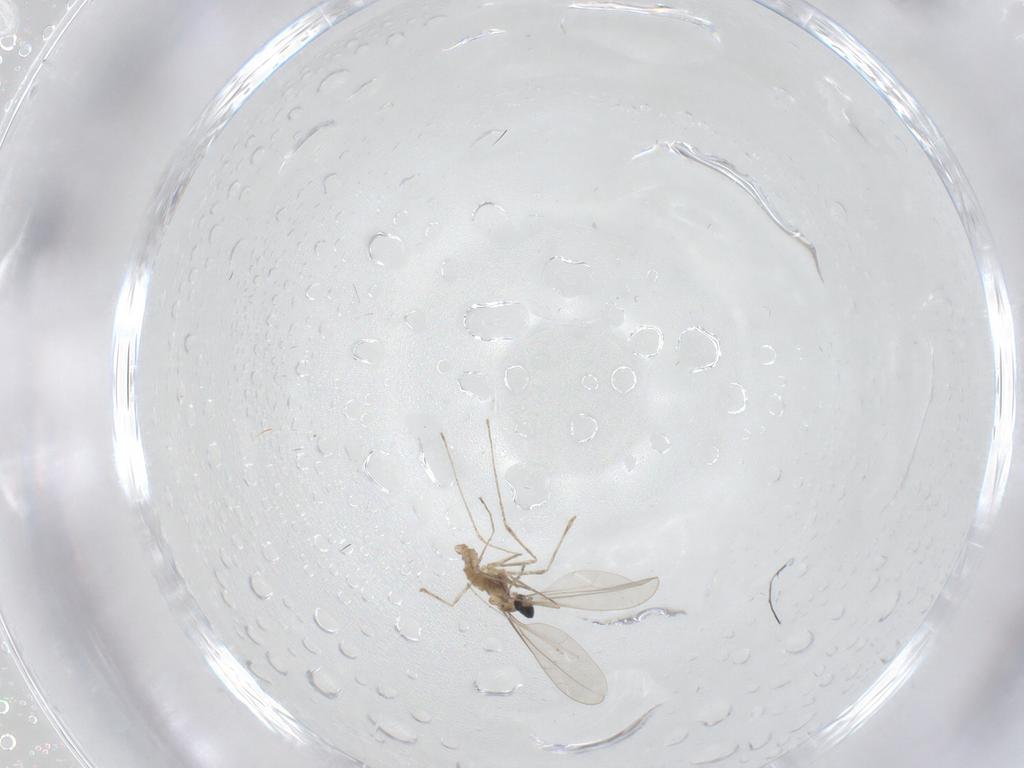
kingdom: Animalia
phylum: Arthropoda
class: Insecta
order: Diptera
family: Cecidomyiidae
